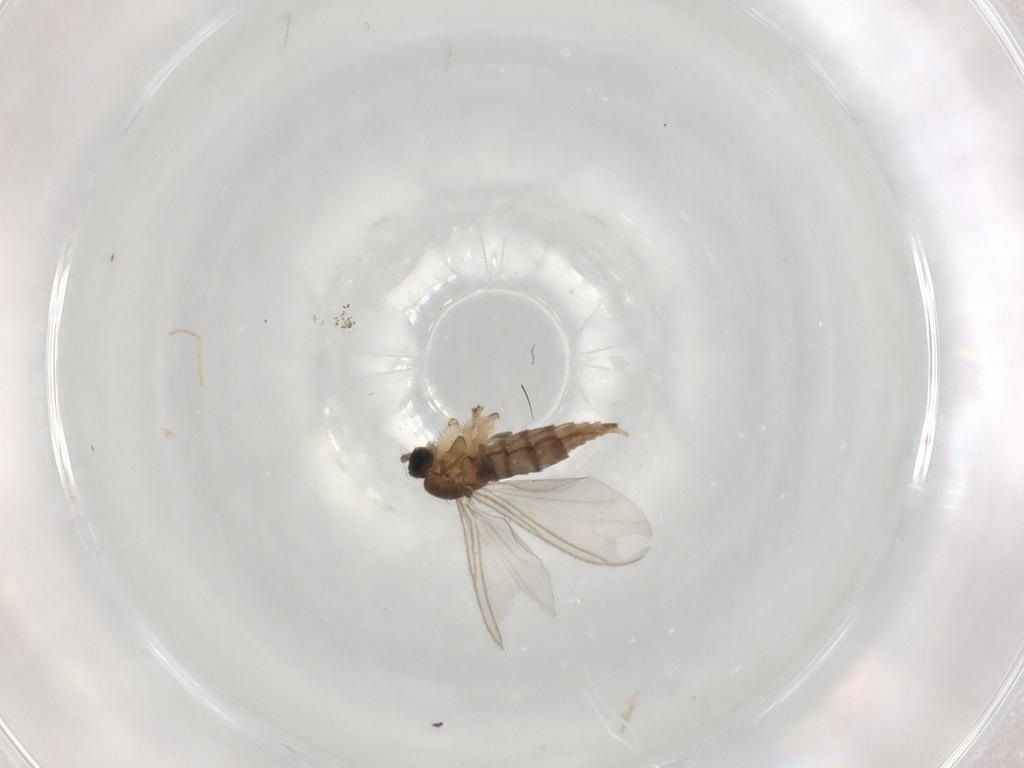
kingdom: Animalia
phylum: Arthropoda
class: Insecta
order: Diptera
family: Sciaridae
